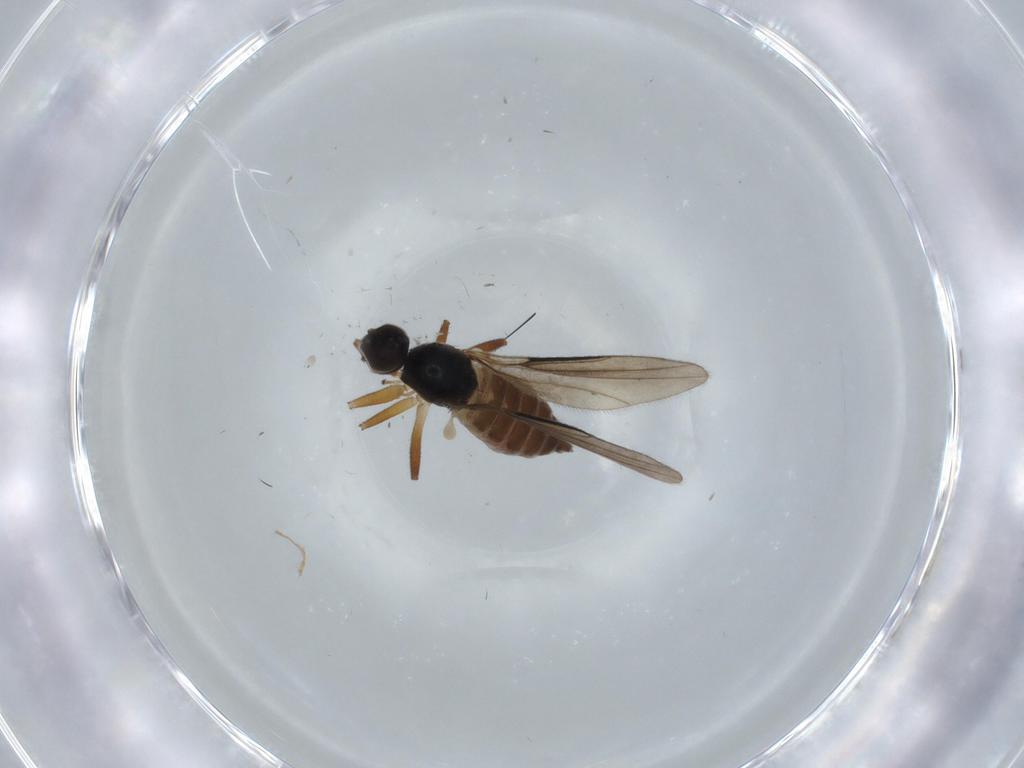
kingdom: Animalia
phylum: Arthropoda
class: Insecta
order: Diptera
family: Hybotidae
